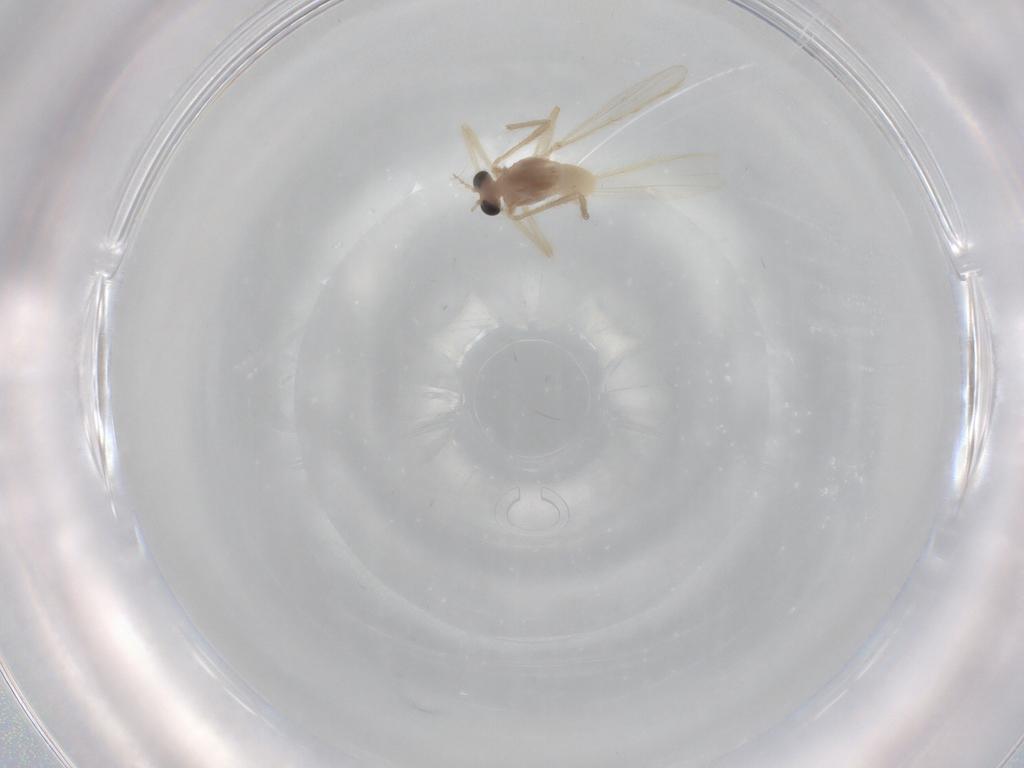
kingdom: Animalia
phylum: Arthropoda
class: Insecta
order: Diptera
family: Chironomidae
